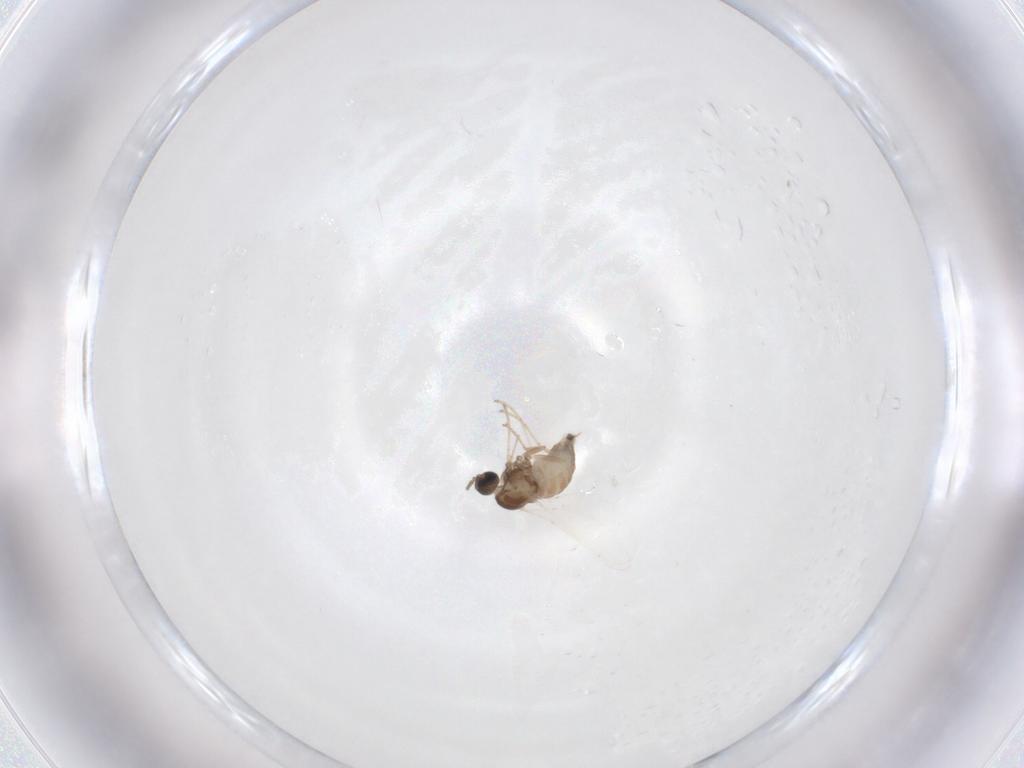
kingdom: Animalia
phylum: Arthropoda
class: Insecta
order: Diptera
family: Cecidomyiidae
